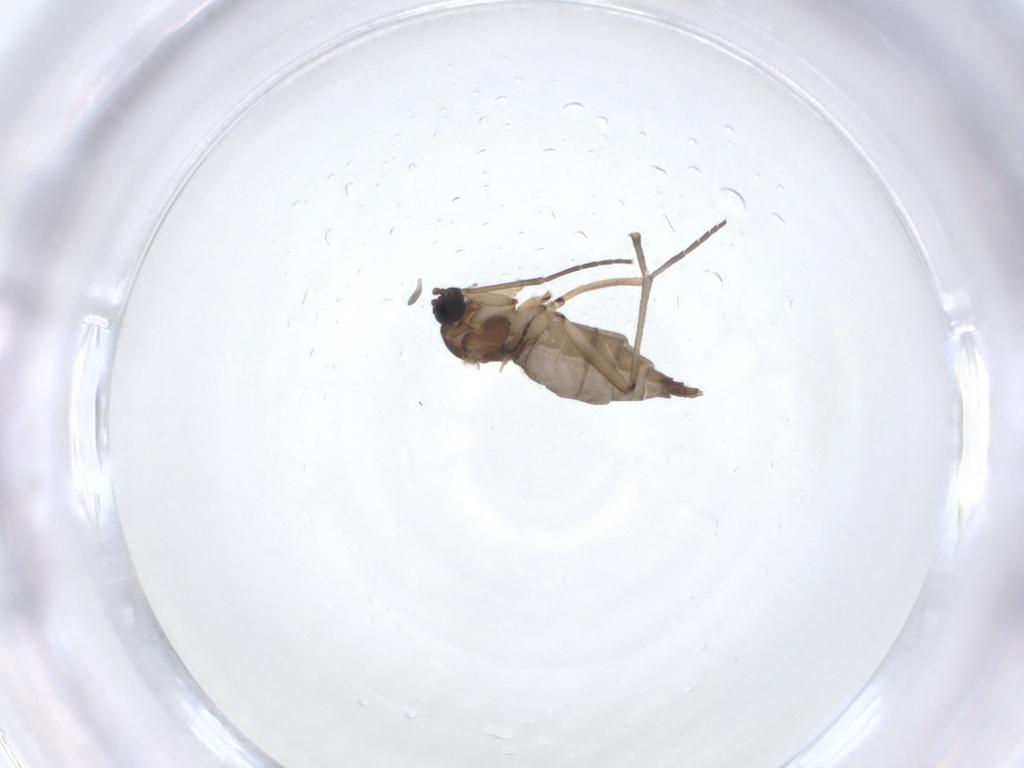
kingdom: Animalia
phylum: Arthropoda
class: Insecta
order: Diptera
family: Sciaridae
